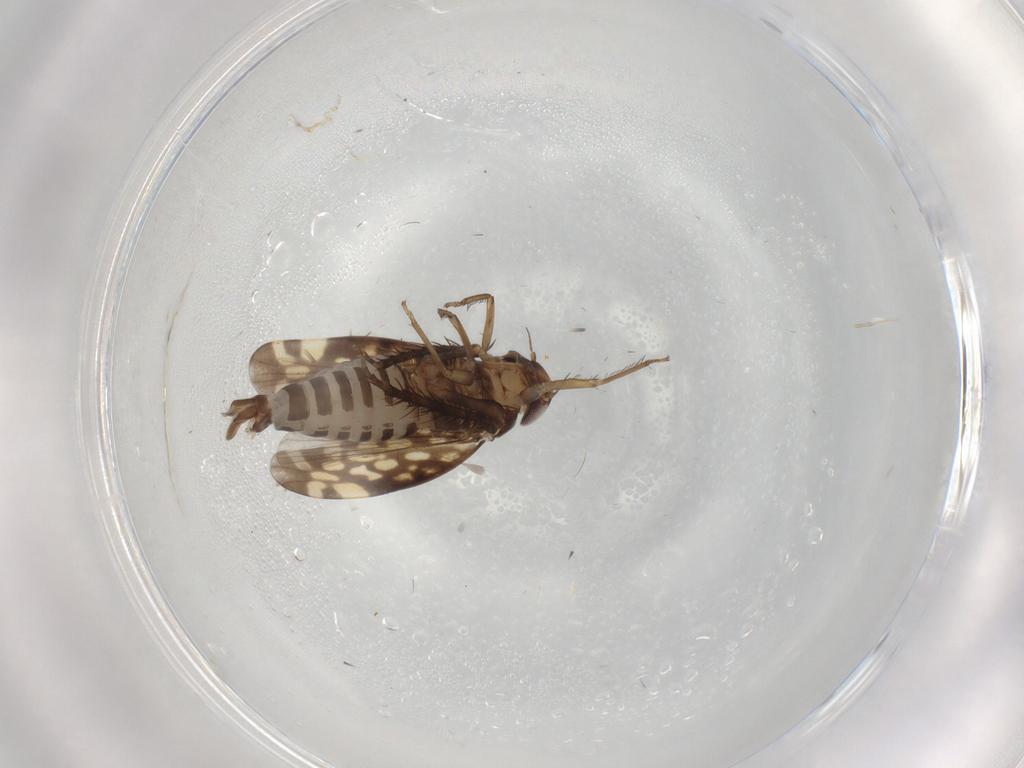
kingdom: Animalia
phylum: Arthropoda
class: Insecta
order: Hemiptera
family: Cicadellidae
